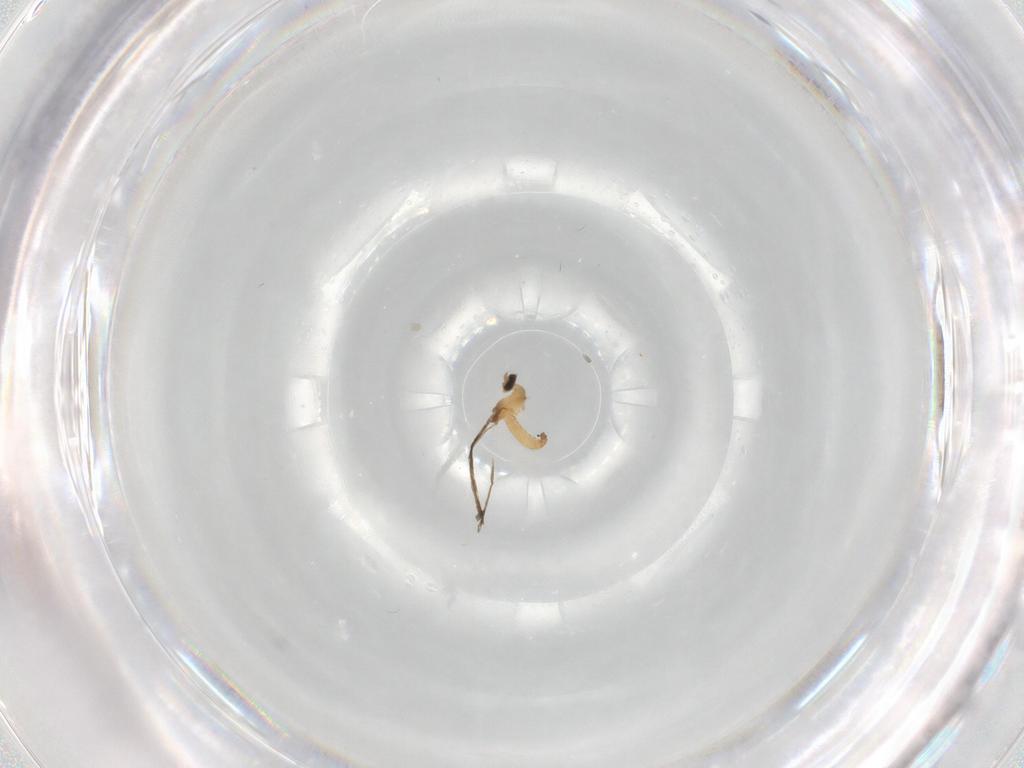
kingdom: Animalia
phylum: Arthropoda
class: Insecta
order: Diptera
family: Cecidomyiidae
